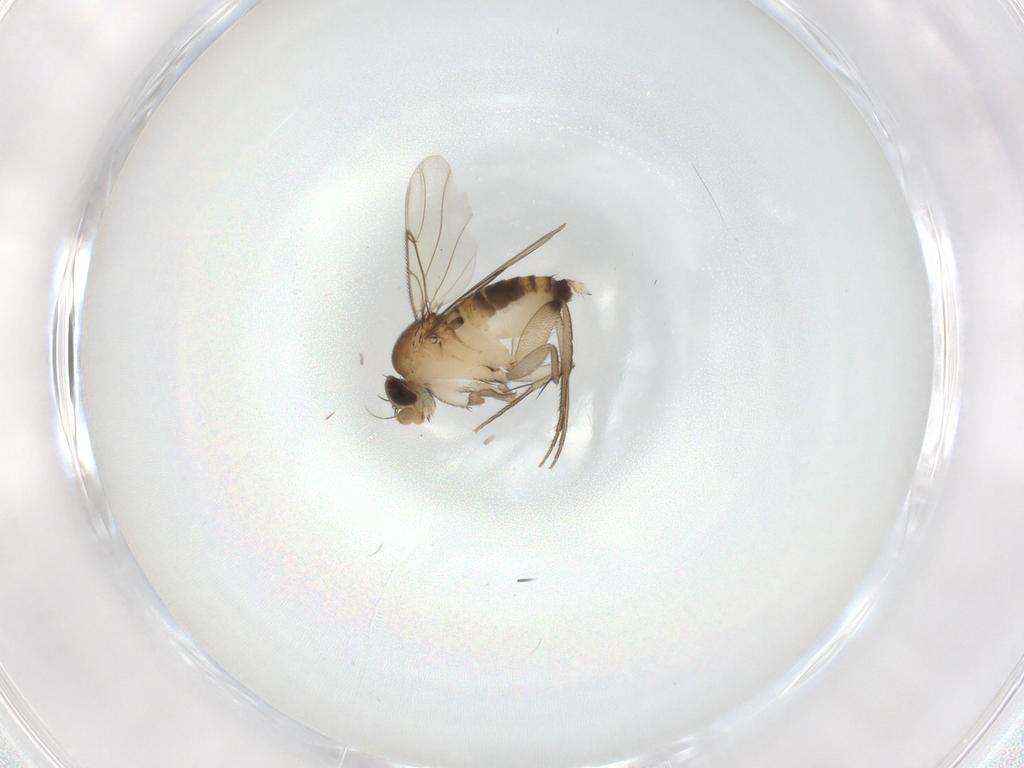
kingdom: Animalia
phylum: Arthropoda
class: Insecta
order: Diptera
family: Phoridae
